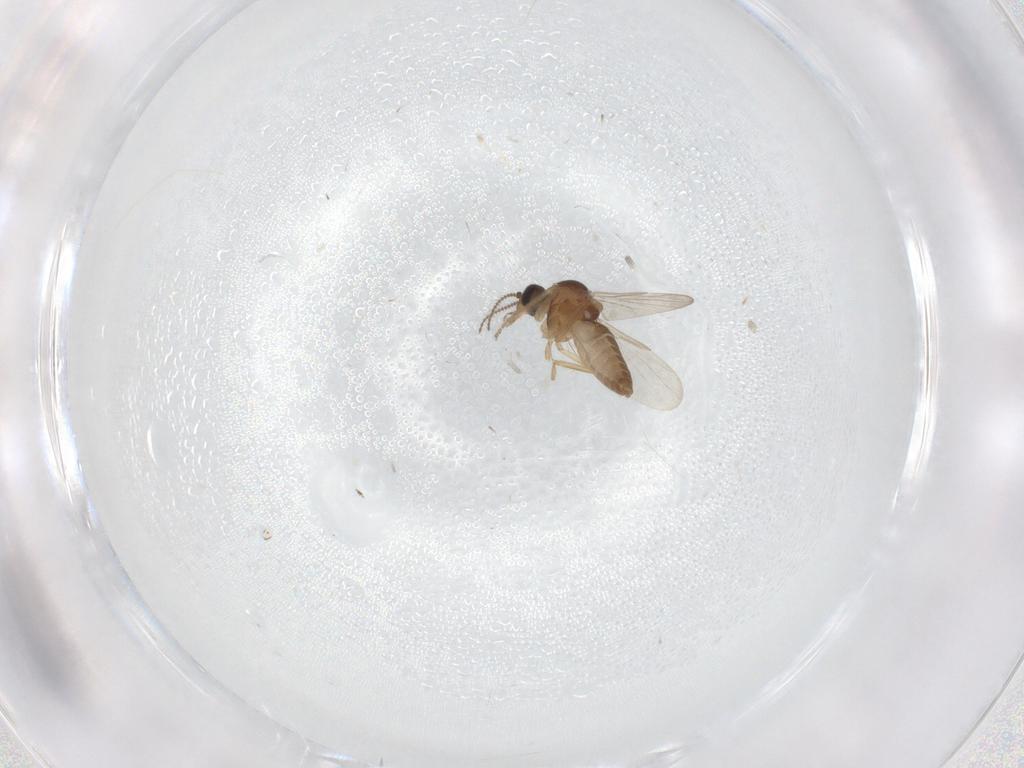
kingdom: Animalia
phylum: Arthropoda
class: Insecta
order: Diptera
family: Ceratopogonidae
